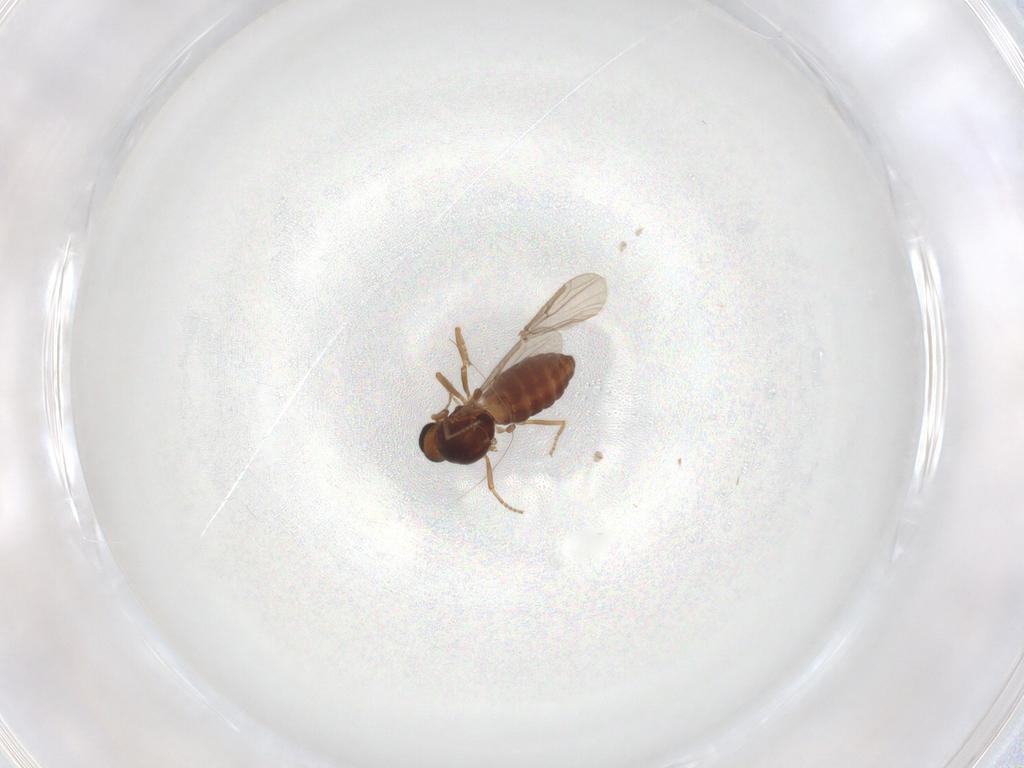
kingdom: Animalia
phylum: Arthropoda
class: Insecta
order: Diptera
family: Ceratopogonidae
